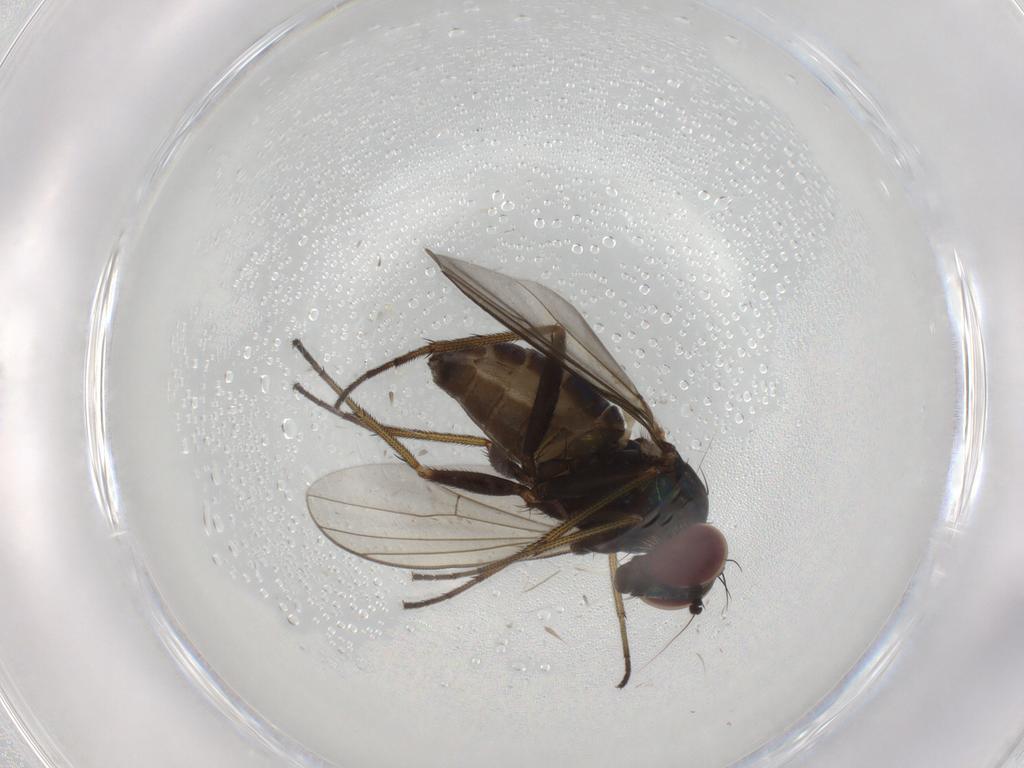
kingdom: Animalia
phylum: Arthropoda
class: Insecta
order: Diptera
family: Dolichopodidae
